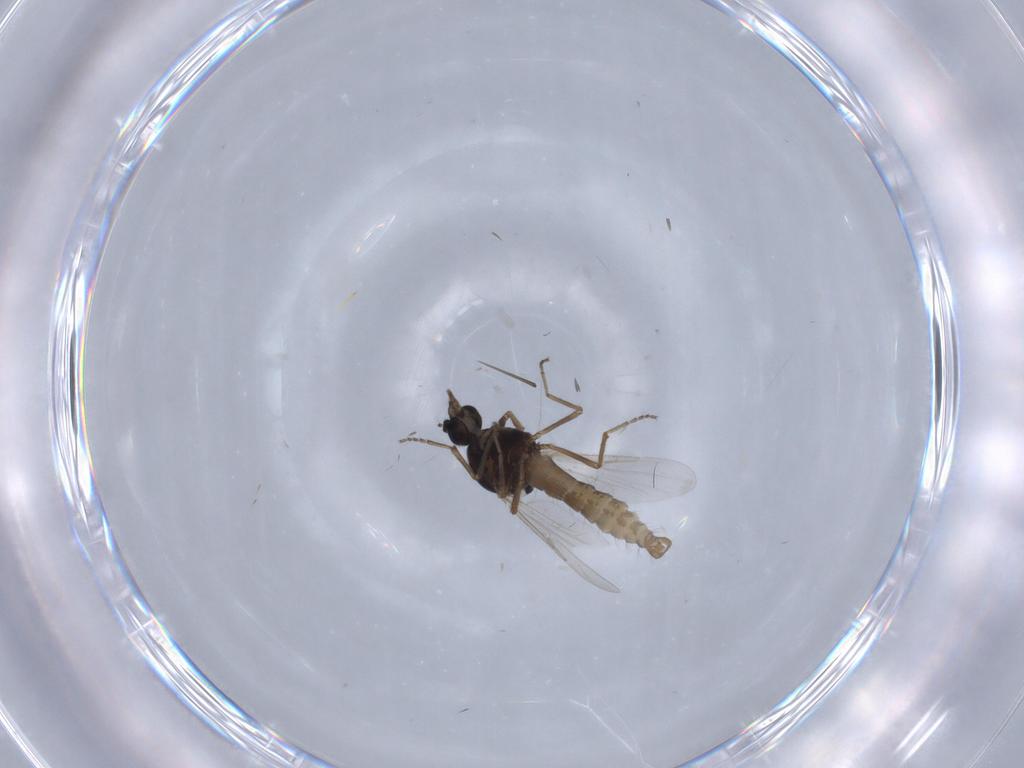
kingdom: Animalia
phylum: Arthropoda
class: Insecta
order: Diptera
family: Ceratopogonidae
